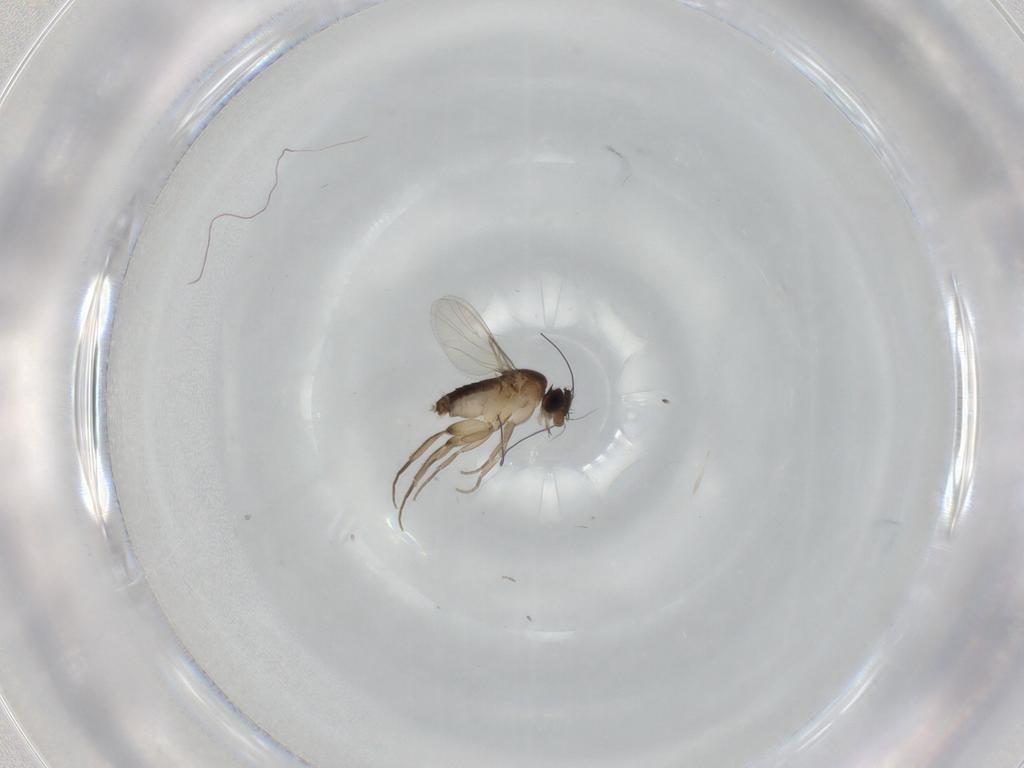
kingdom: Animalia
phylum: Arthropoda
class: Insecta
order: Diptera
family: Phoridae
